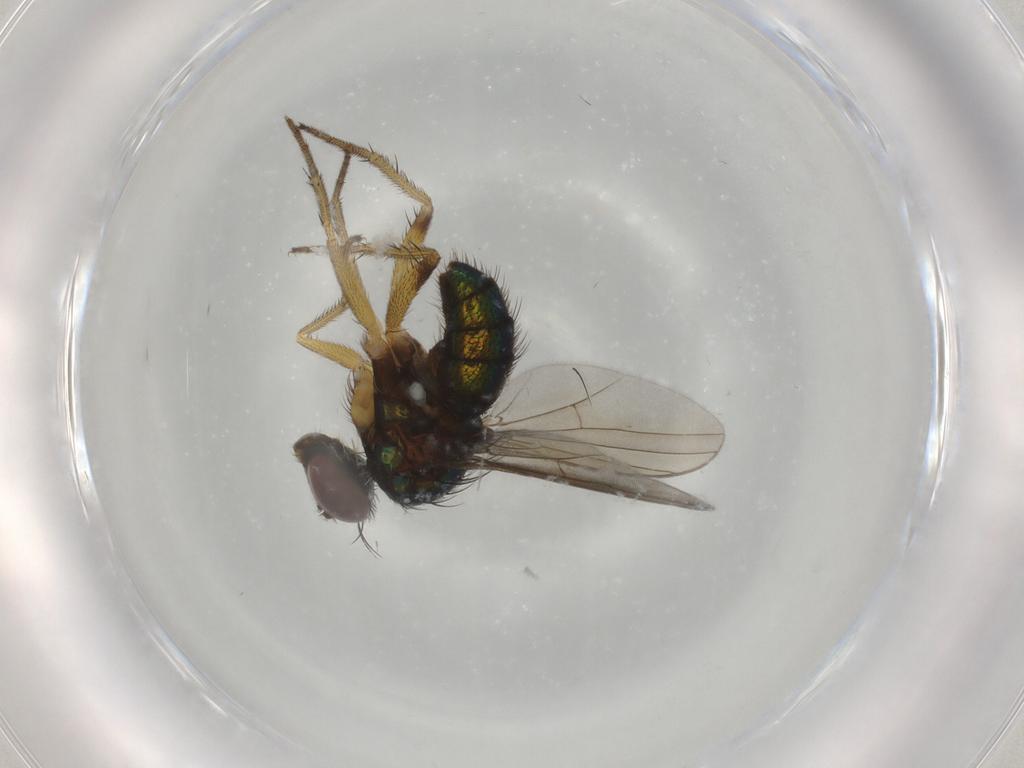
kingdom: Animalia
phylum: Arthropoda
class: Insecta
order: Diptera
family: Dolichopodidae
